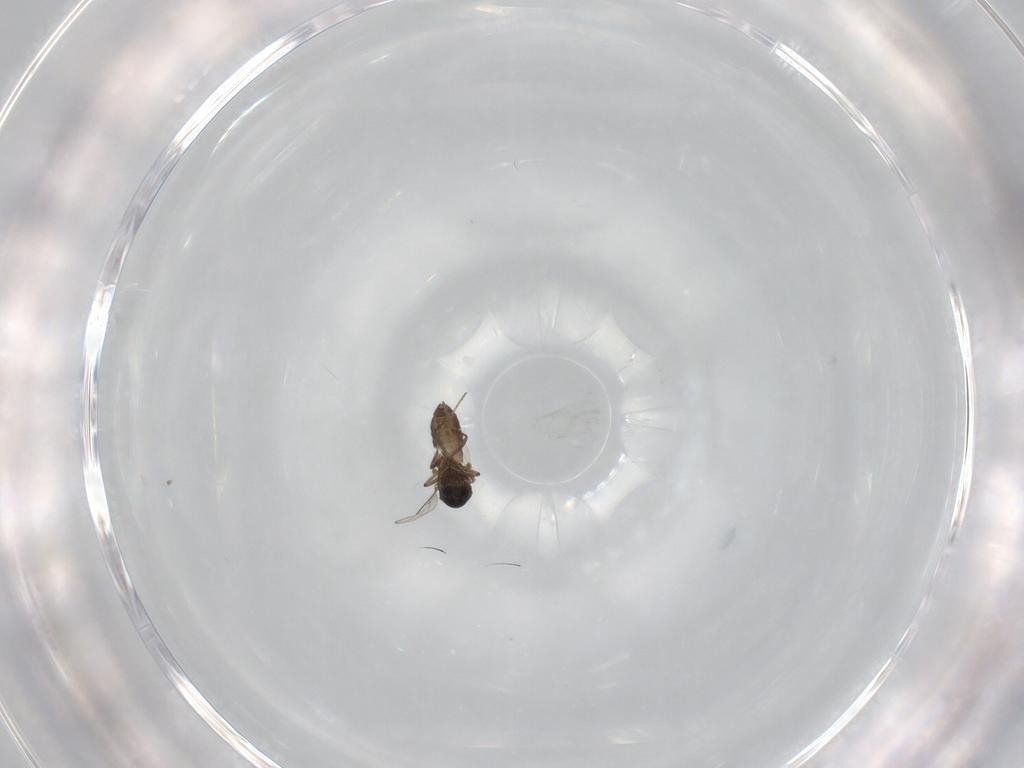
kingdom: Animalia
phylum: Arthropoda
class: Insecta
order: Diptera
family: Ceratopogonidae
